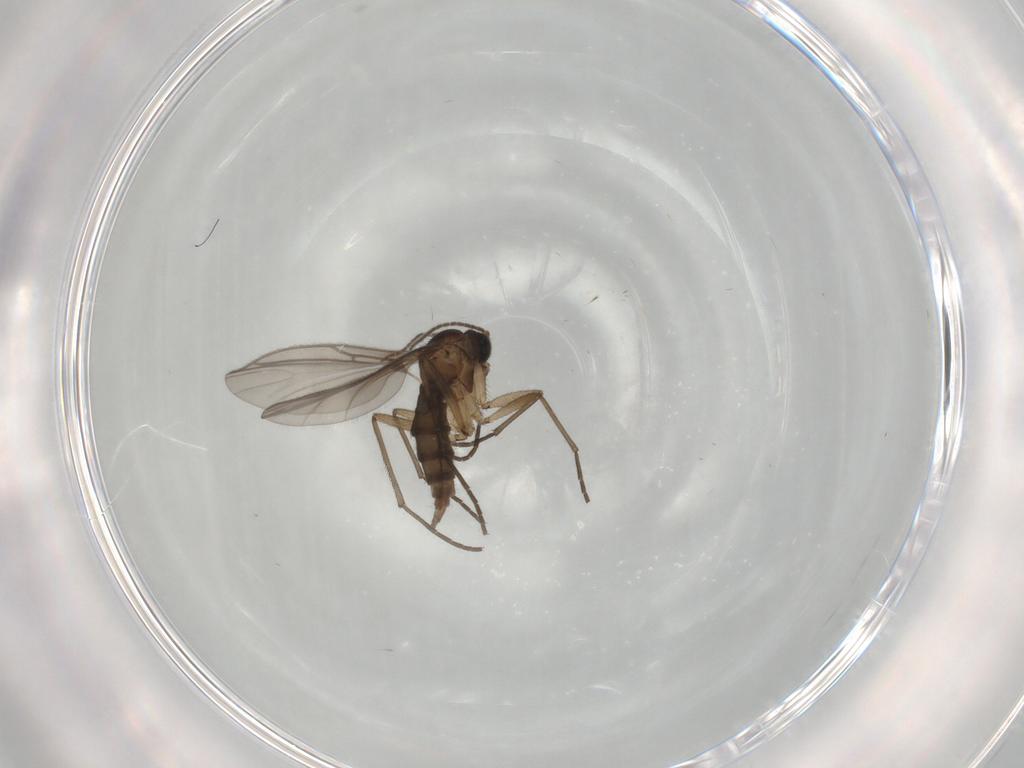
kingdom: Animalia
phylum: Arthropoda
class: Insecta
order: Diptera
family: Sciaridae
